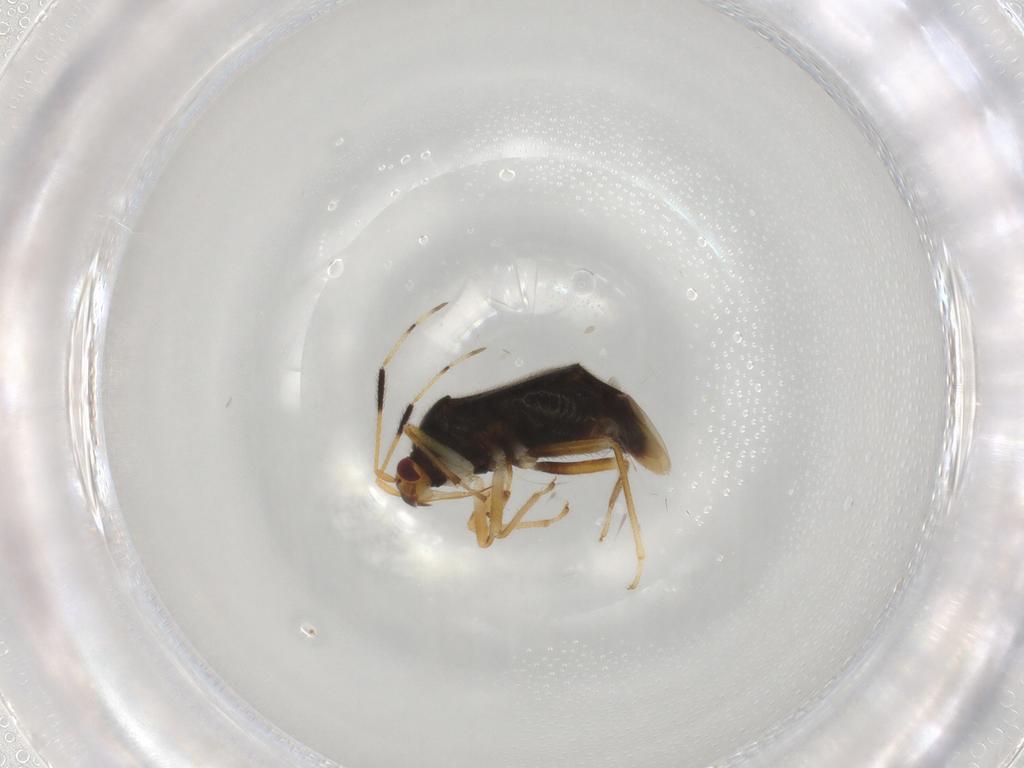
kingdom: Animalia
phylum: Arthropoda
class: Insecta
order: Hemiptera
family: Miridae
